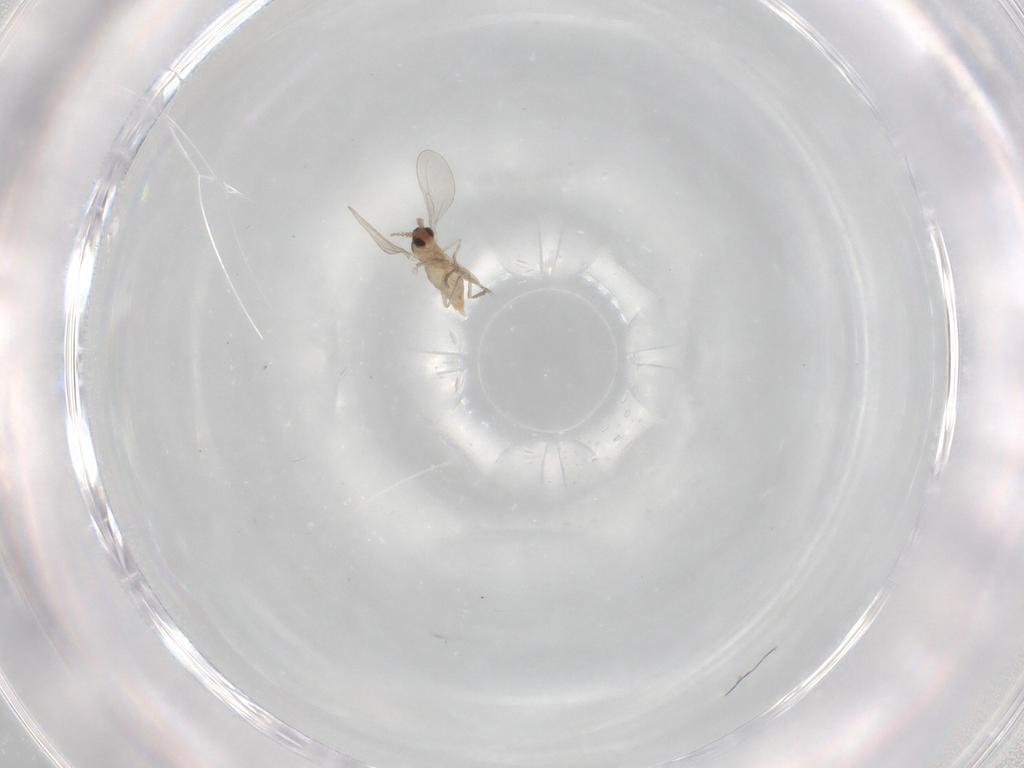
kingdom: Animalia
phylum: Arthropoda
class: Insecta
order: Diptera
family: Cecidomyiidae
